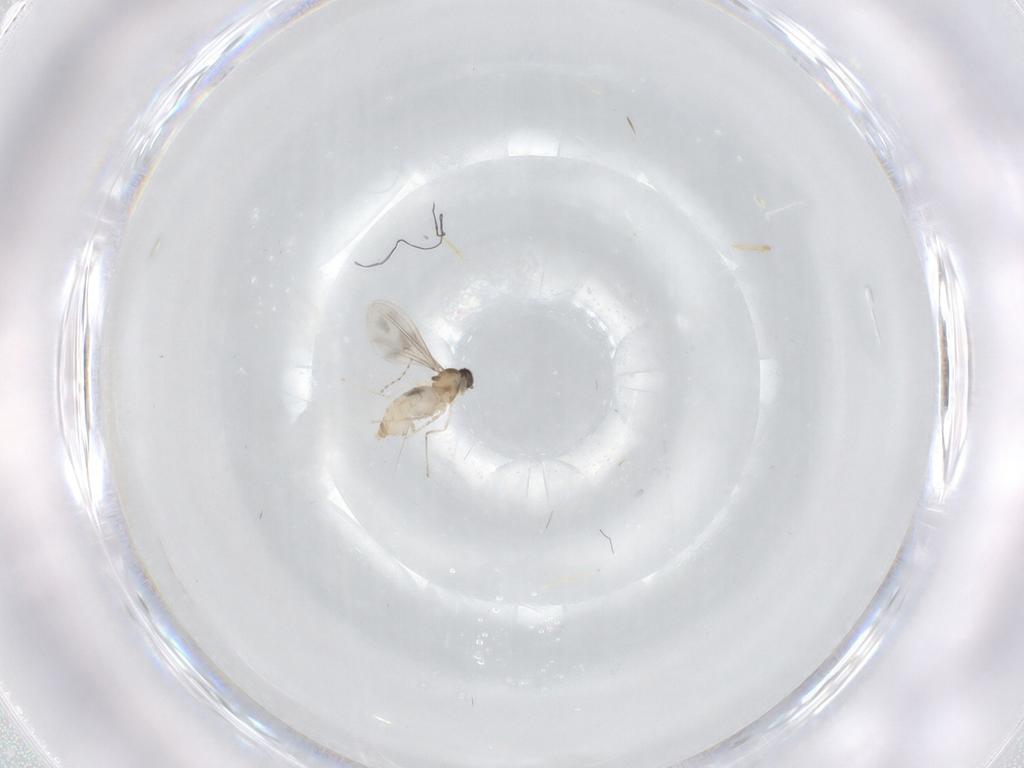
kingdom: Animalia
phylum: Arthropoda
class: Insecta
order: Diptera
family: Cecidomyiidae
